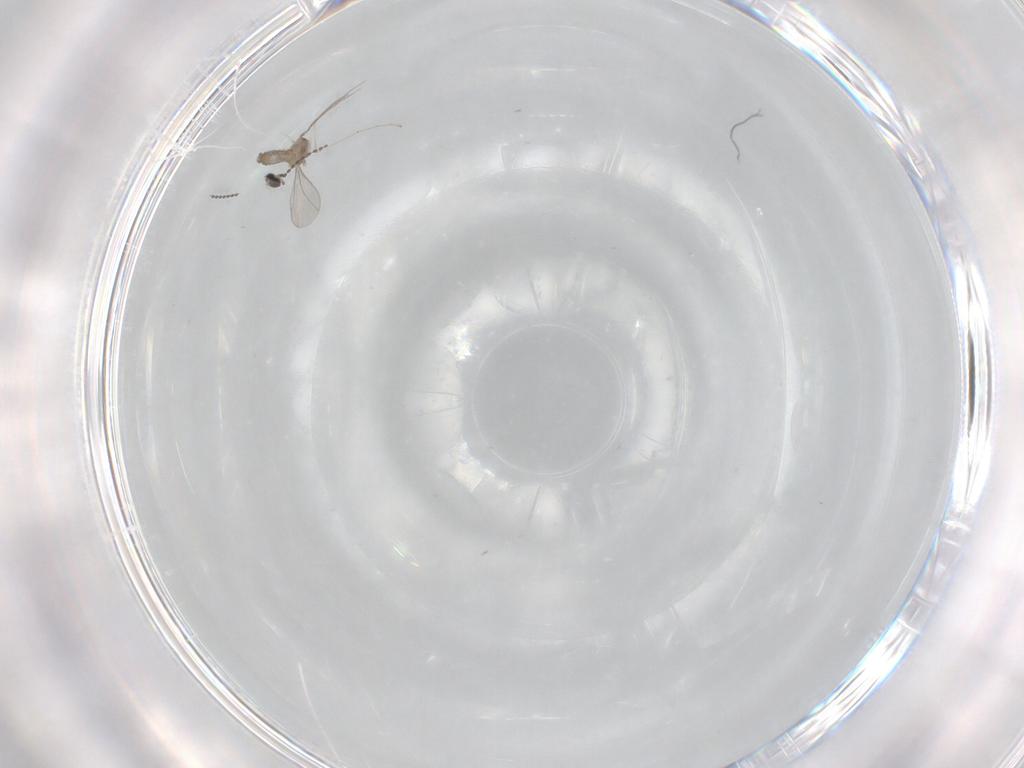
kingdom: Animalia
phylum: Arthropoda
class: Insecta
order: Diptera
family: Cecidomyiidae
